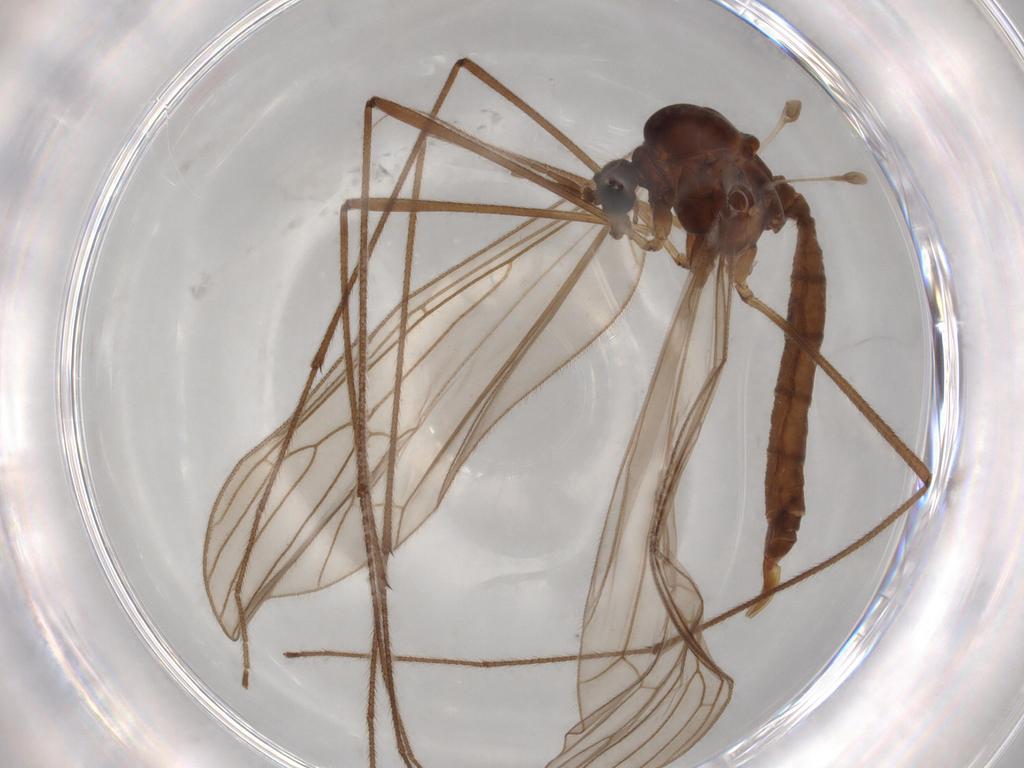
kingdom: Animalia
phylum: Arthropoda
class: Insecta
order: Diptera
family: Trichoceridae
